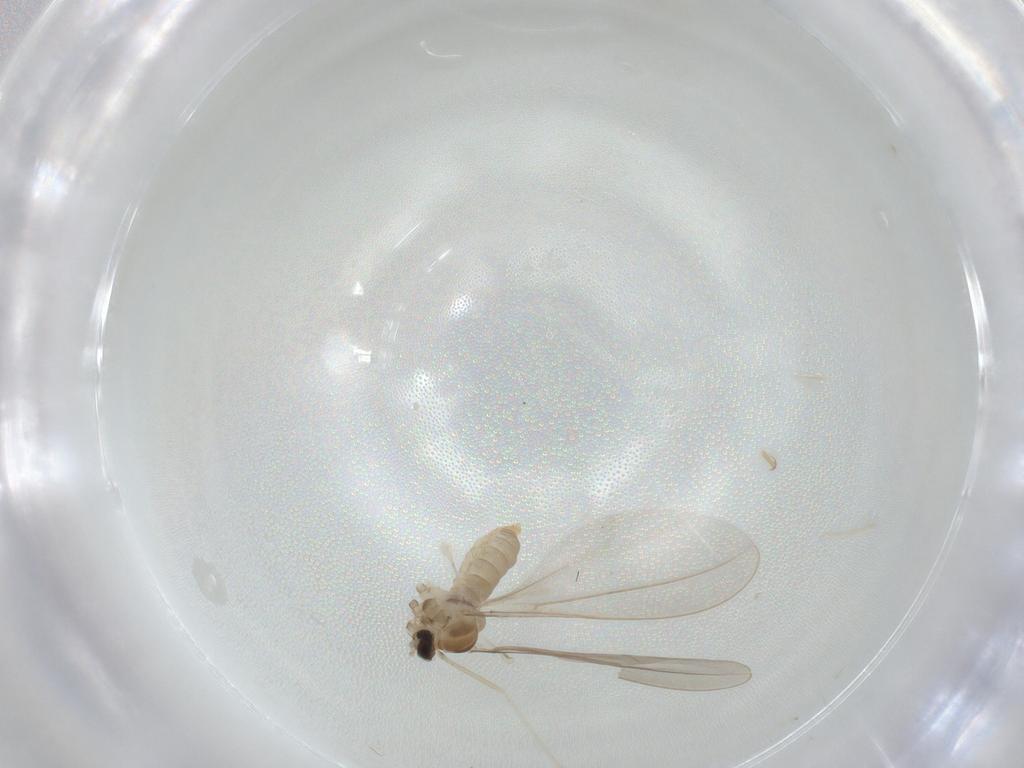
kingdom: Animalia
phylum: Arthropoda
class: Insecta
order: Diptera
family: Cecidomyiidae
